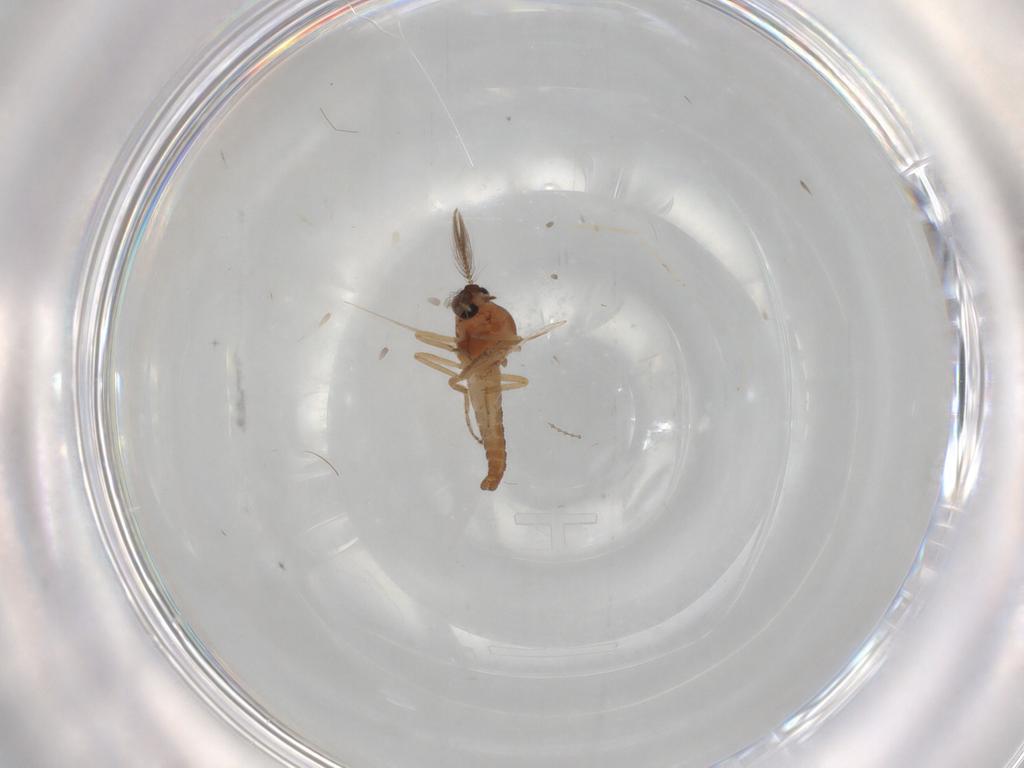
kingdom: Animalia
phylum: Arthropoda
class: Insecta
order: Diptera
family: Ceratopogonidae
